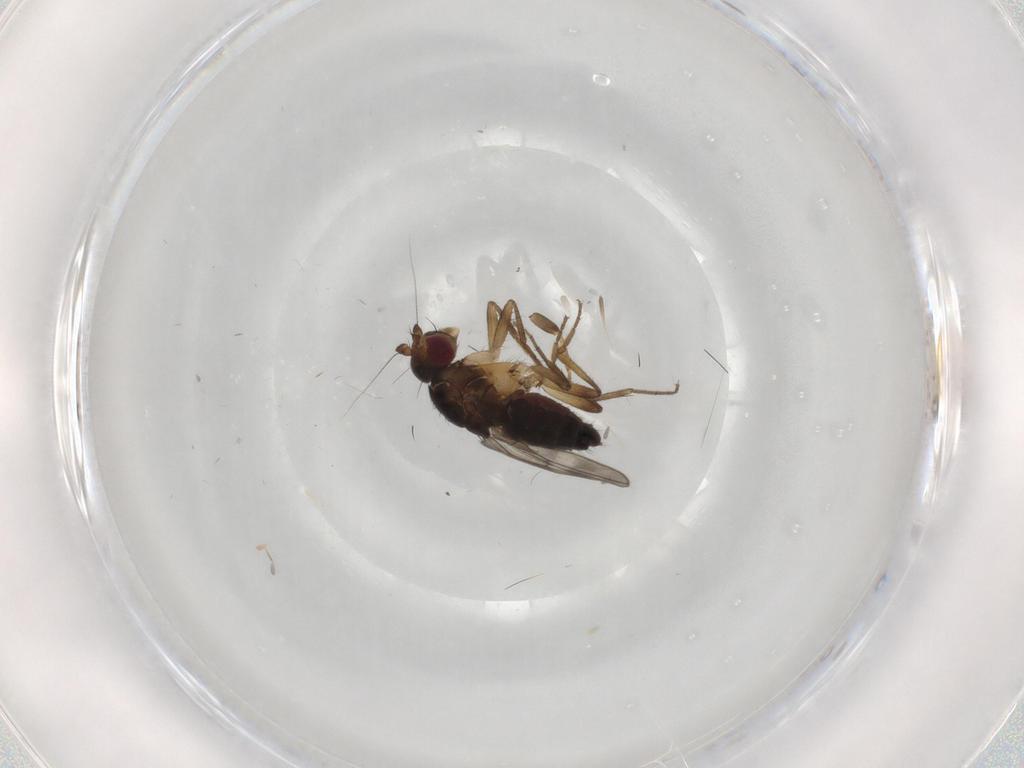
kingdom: Animalia
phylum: Arthropoda
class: Insecta
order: Diptera
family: Sphaeroceridae
